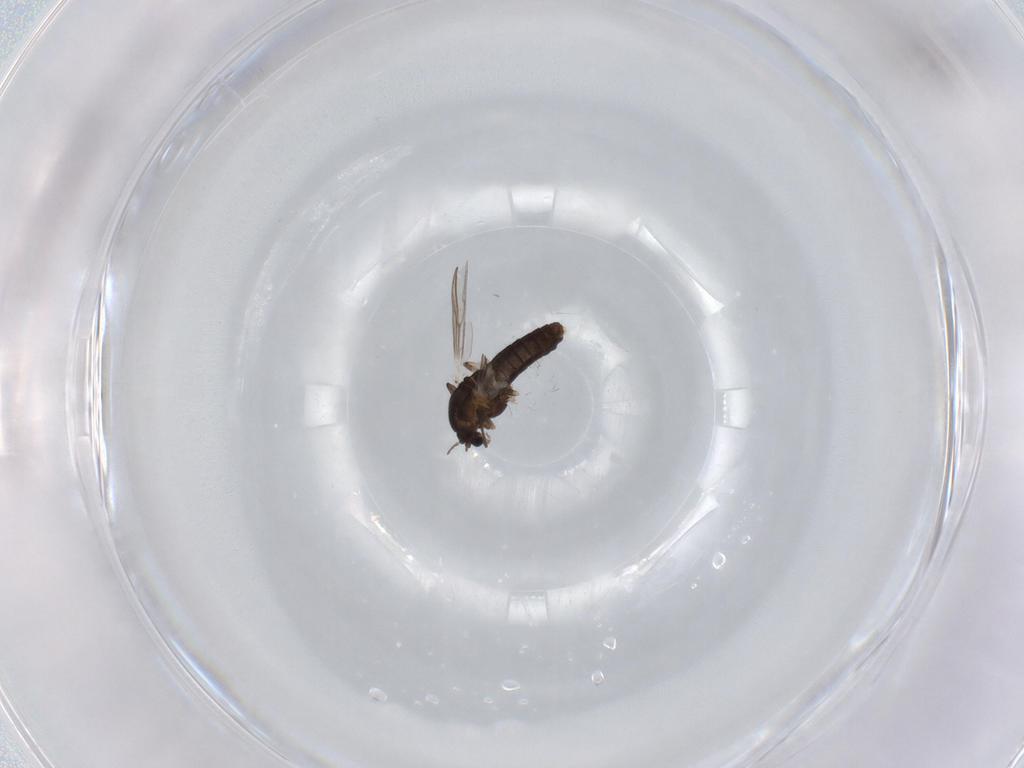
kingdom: Animalia
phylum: Arthropoda
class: Insecta
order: Diptera
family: Chironomidae
